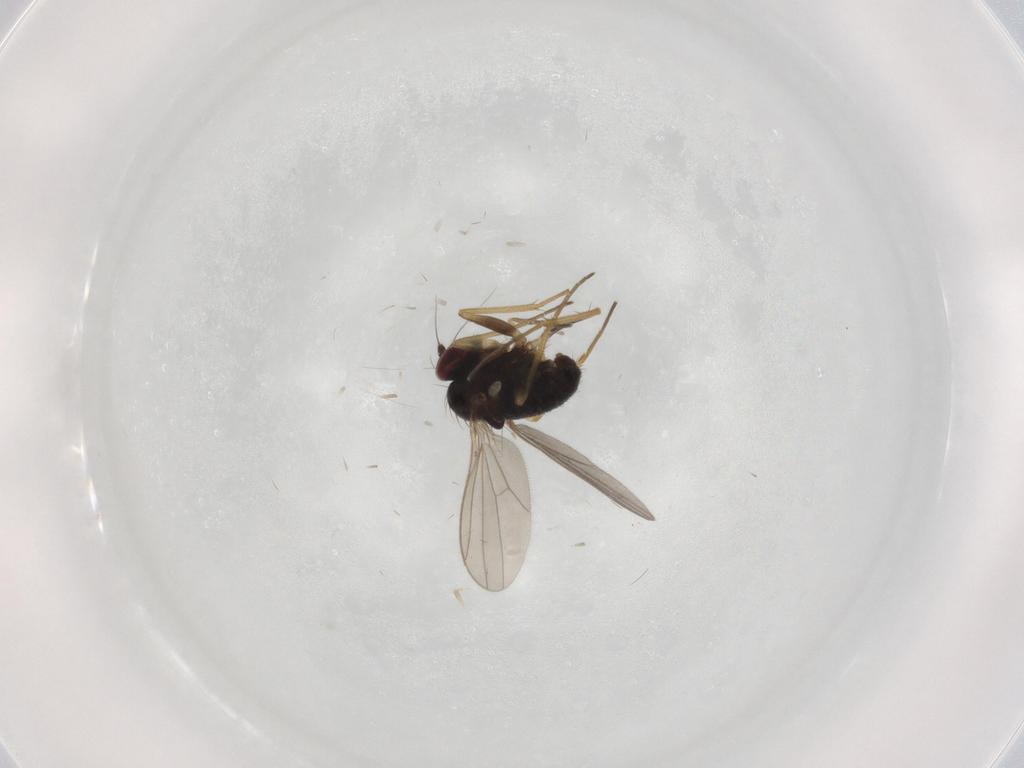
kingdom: Animalia
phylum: Arthropoda
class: Insecta
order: Diptera
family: Dolichopodidae
